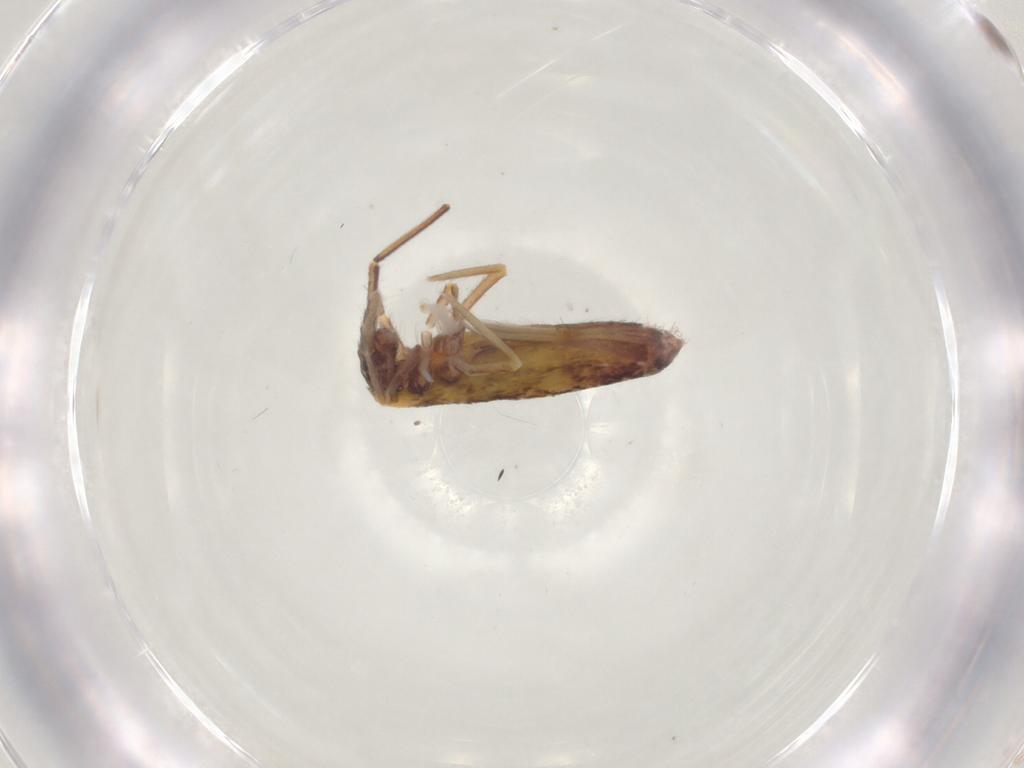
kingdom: Animalia
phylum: Arthropoda
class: Collembola
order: Entomobryomorpha
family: Entomobryidae
